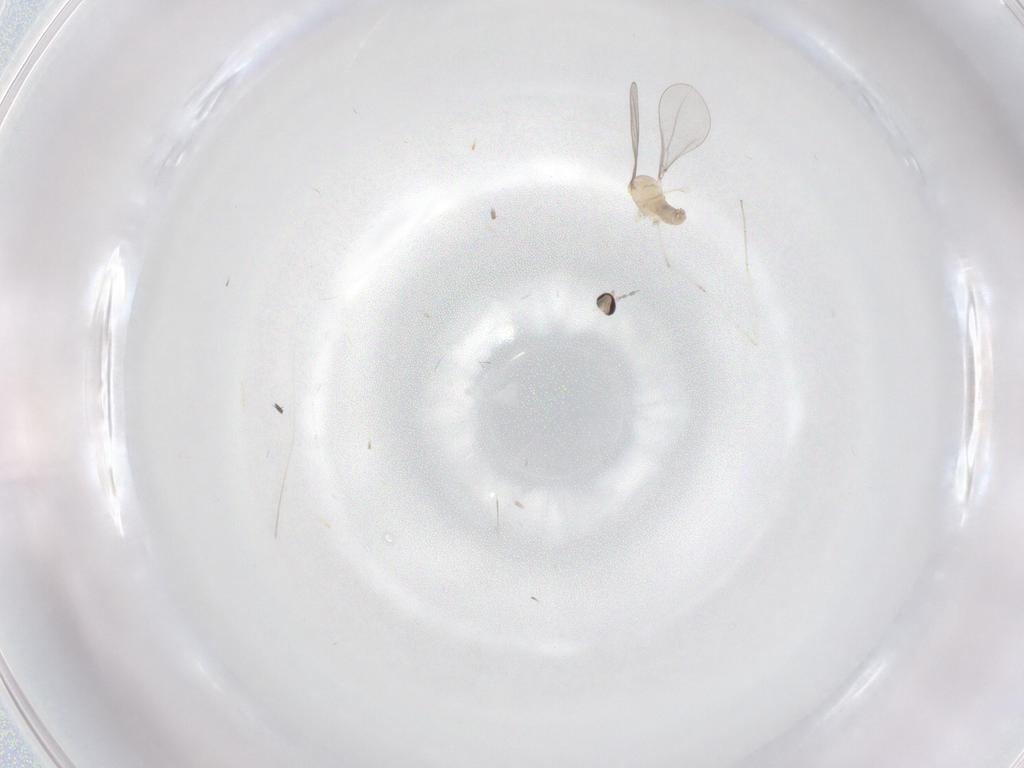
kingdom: Animalia
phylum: Arthropoda
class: Insecta
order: Diptera
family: Cecidomyiidae
